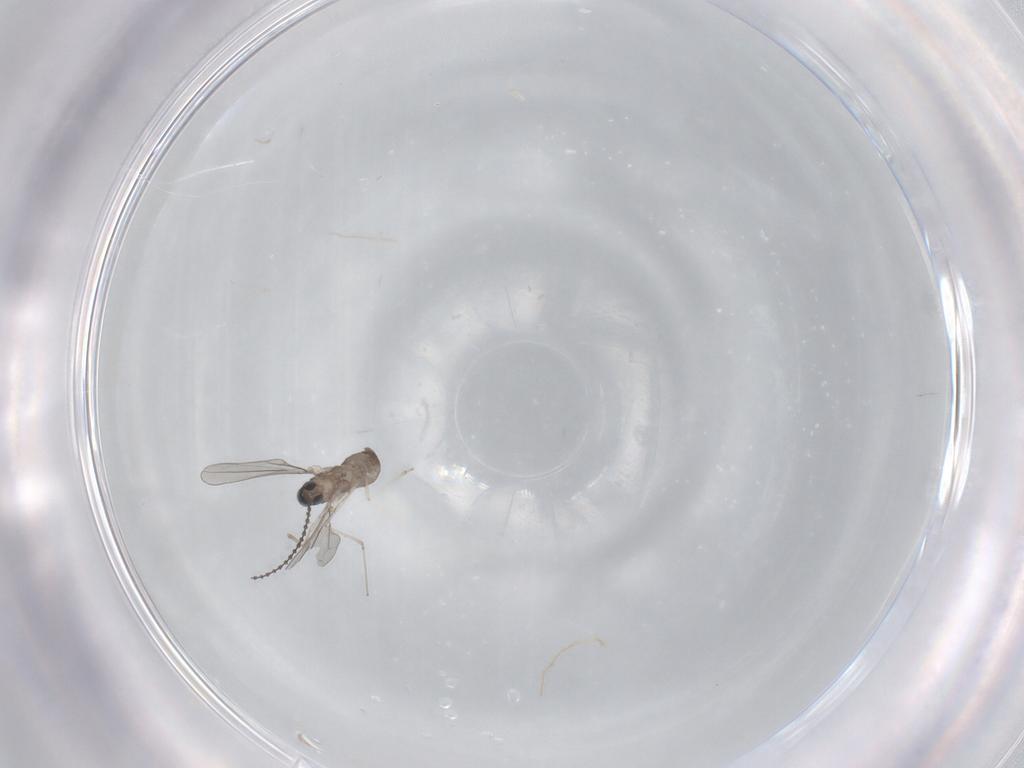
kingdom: Animalia
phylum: Arthropoda
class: Insecta
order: Diptera
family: Cecidomyiidae
